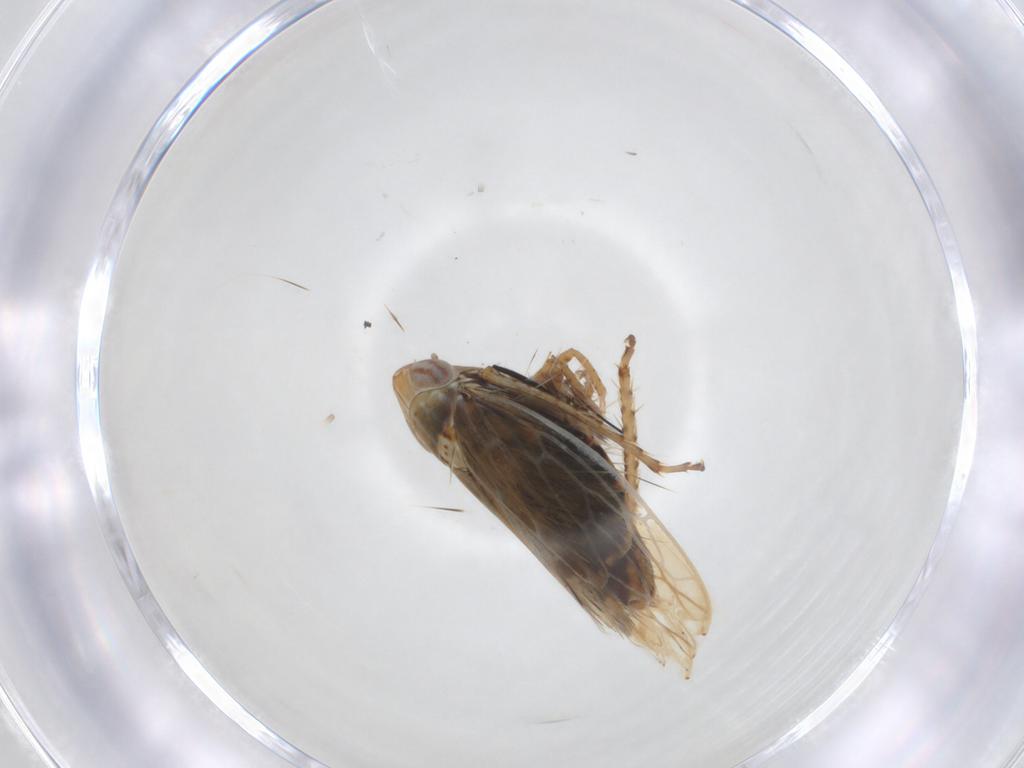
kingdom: Animalia
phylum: Arthropoda
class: Insecta
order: Hemiptera
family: Cicadellidae
